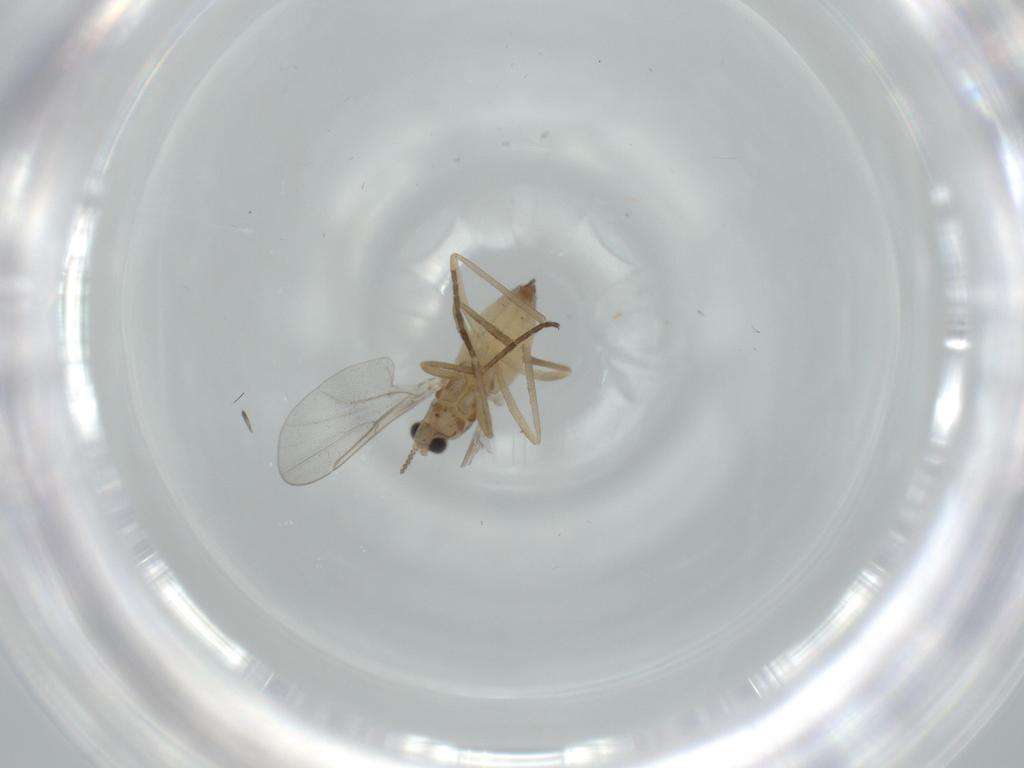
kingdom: Animalia
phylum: Arthropoda
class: Insecta
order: Diptera
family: Cecidomyiidae
